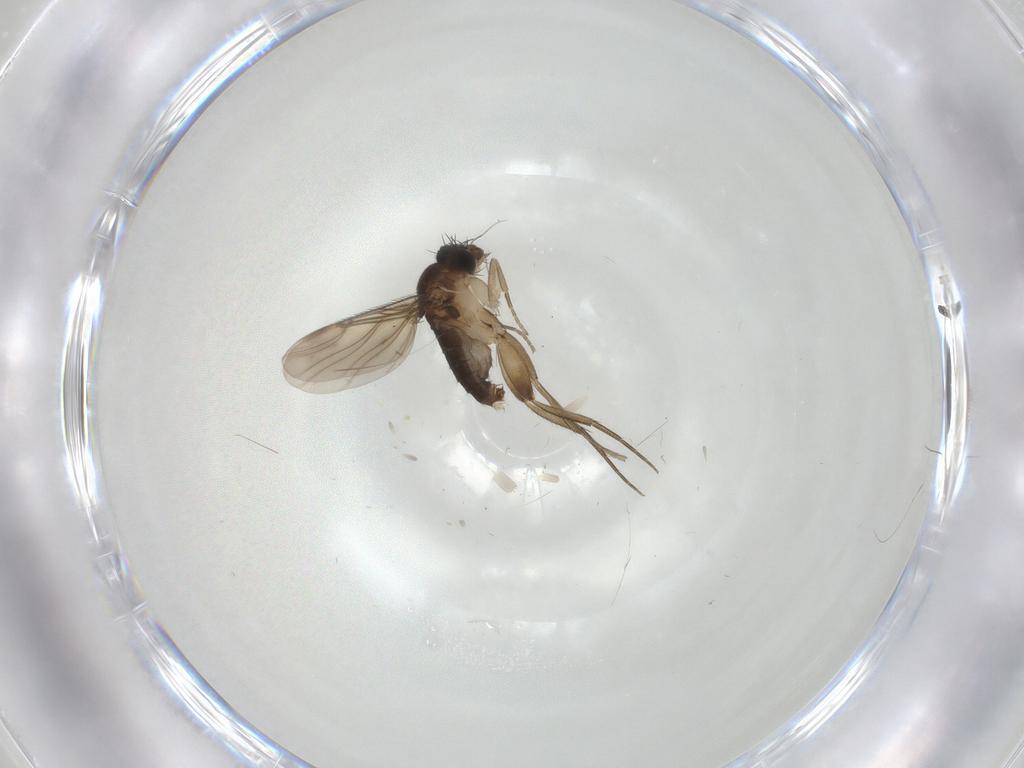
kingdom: Animalia
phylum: Arthropoda
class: Insecta
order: Diptera
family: Phoridae
